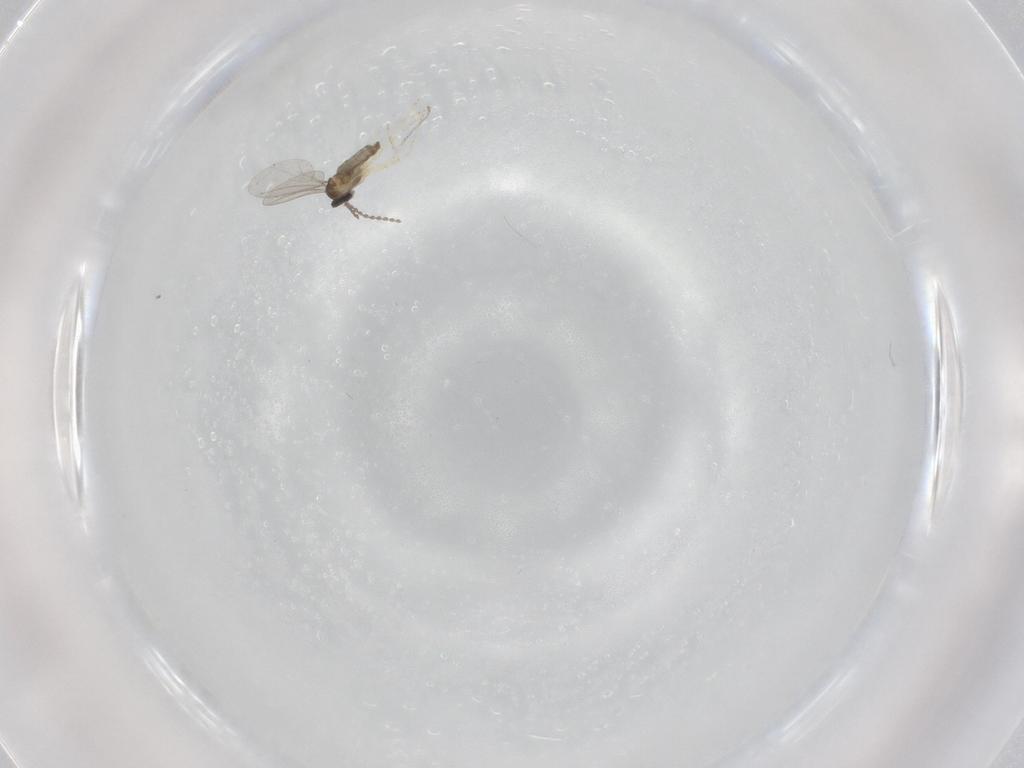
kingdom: Animalia
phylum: Arthropoda
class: Insecta
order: Diptera
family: Cecidomyiidae
